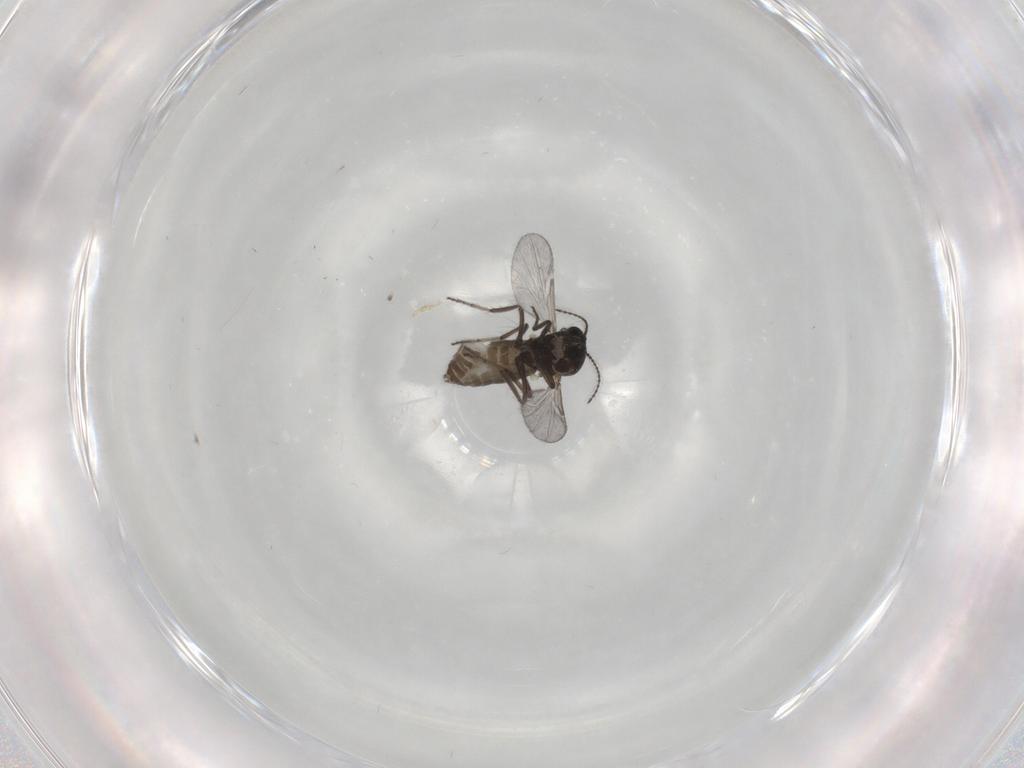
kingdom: Animalia
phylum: Arthropoda
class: Insecta
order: Diptera
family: Ceratopogonidae
